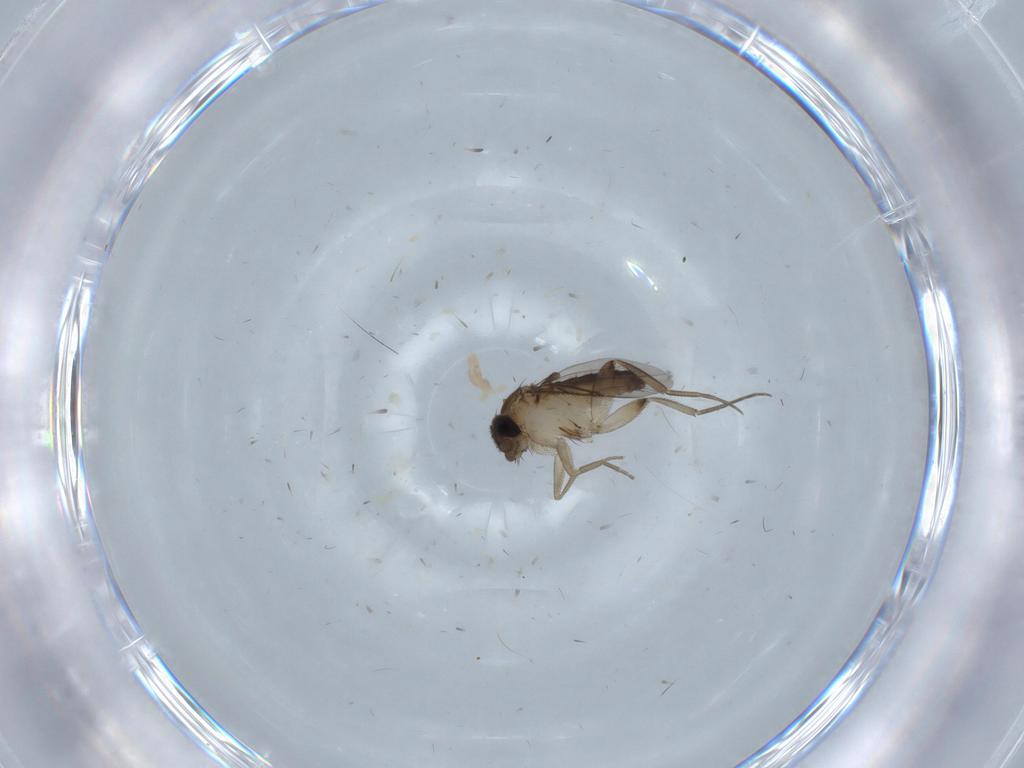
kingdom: Animalia
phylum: Arthropoda
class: Insecta
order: Diptera
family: Phoridae
